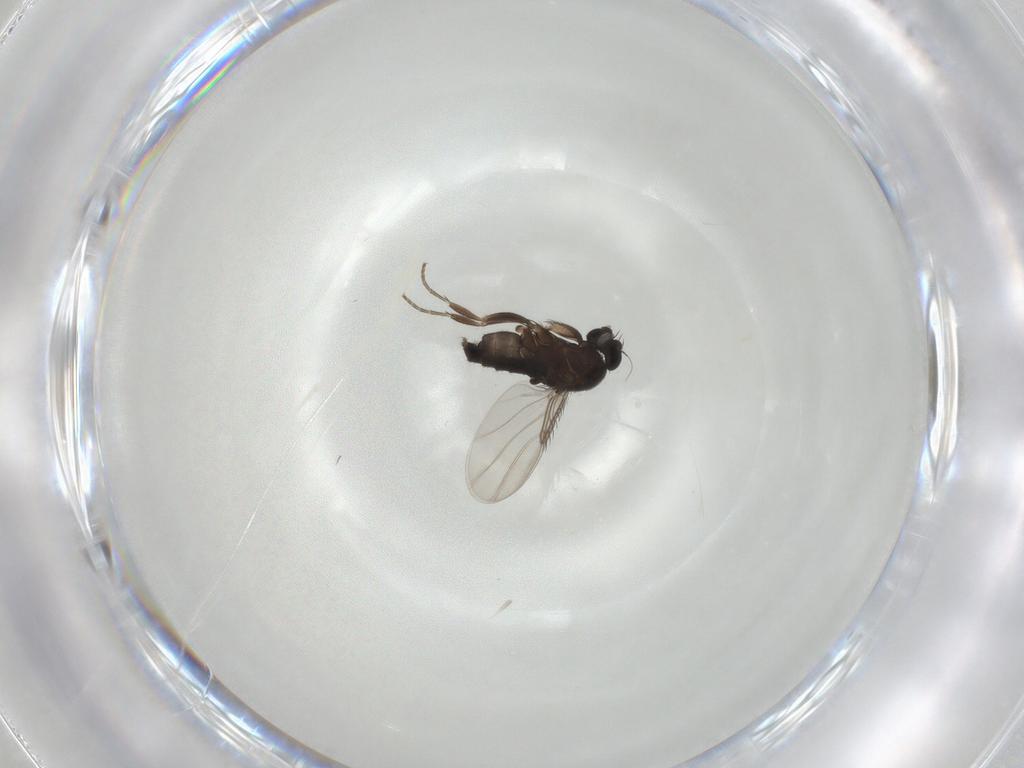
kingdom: Animalia
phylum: Arthropoda
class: Insecta
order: Diptera
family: Phoridae
